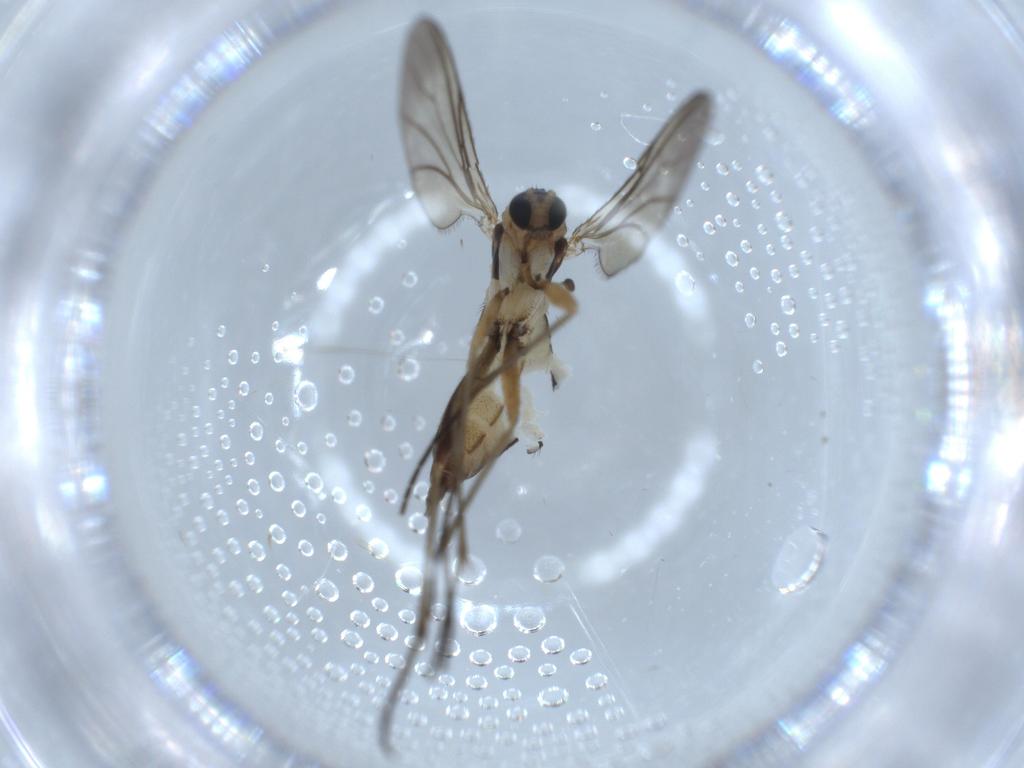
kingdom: Animalia
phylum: Arthropoda
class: Insecta
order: Diptera
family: Sciaridae
